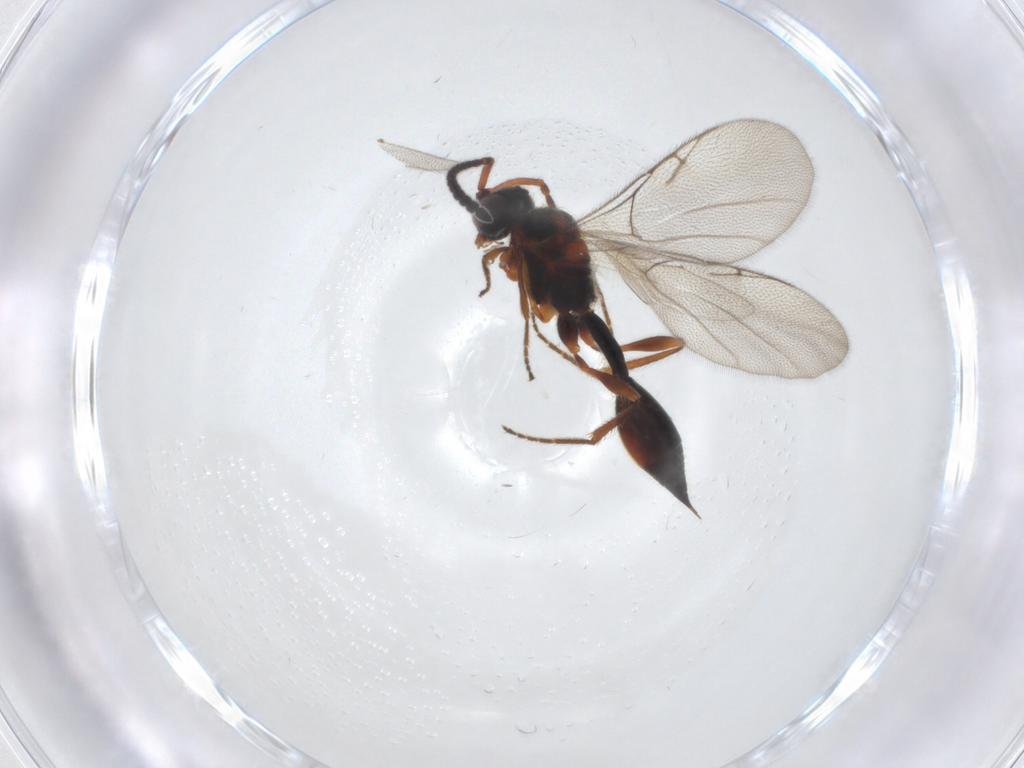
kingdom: Animalia
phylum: Arthropoda
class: Insecta
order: Hymenoptera
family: Diapriidae
